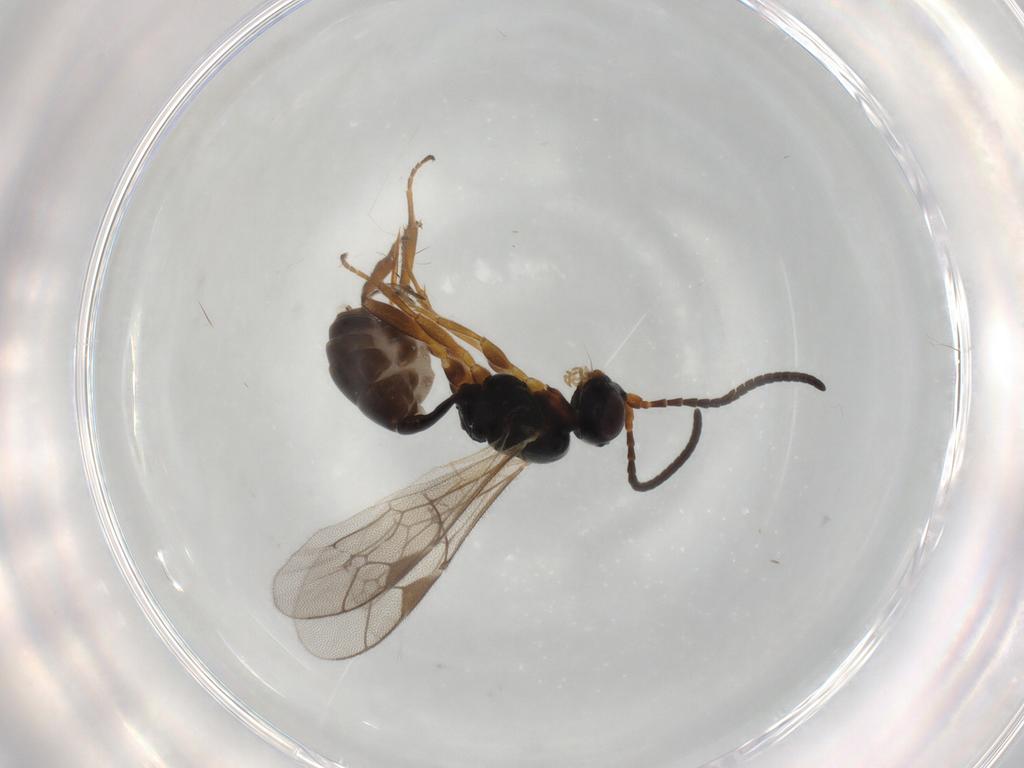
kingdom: Animalia
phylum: Arthropoda
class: Insecta
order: Hymenoptera
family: Ichneumonidae
